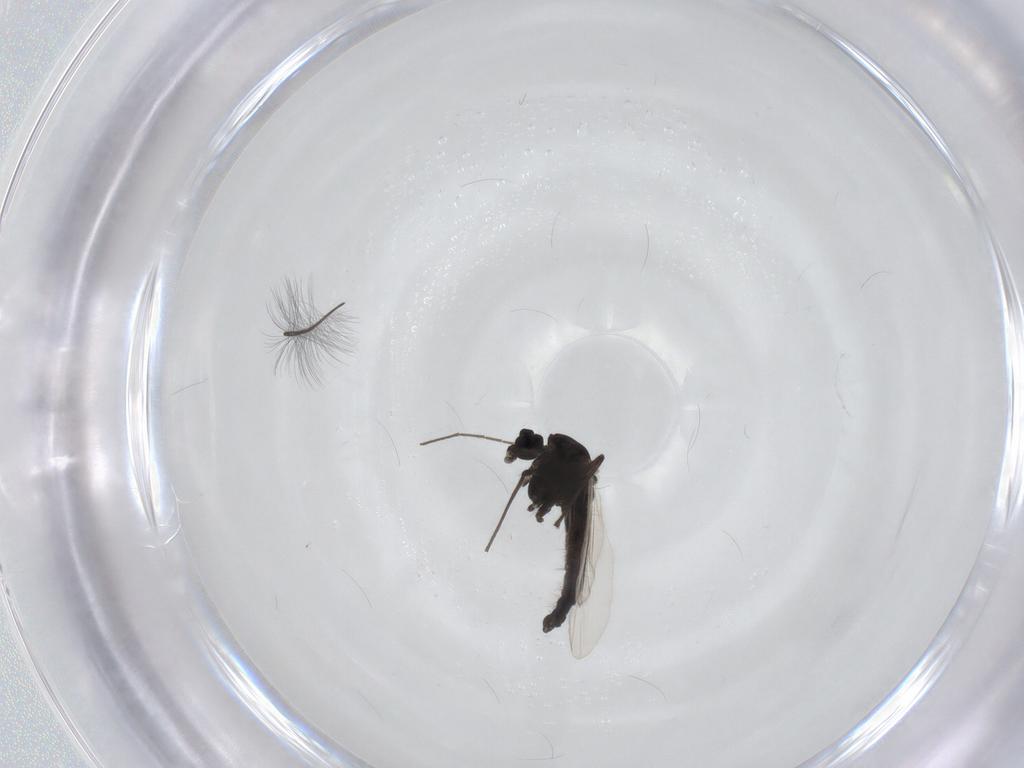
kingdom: Animalia
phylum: Arthropoda
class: Insecta
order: Diptera
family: Chironomidae
